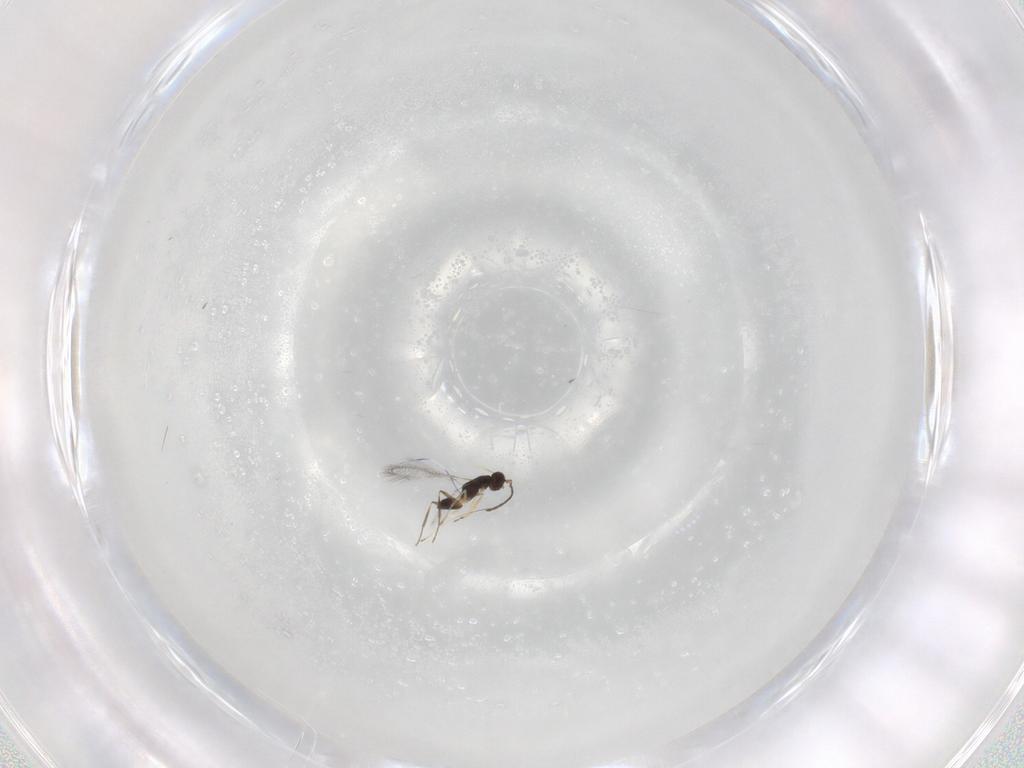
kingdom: Animalia
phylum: Arthropoda
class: Insecta
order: Hymenoptera
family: Mymaridae
